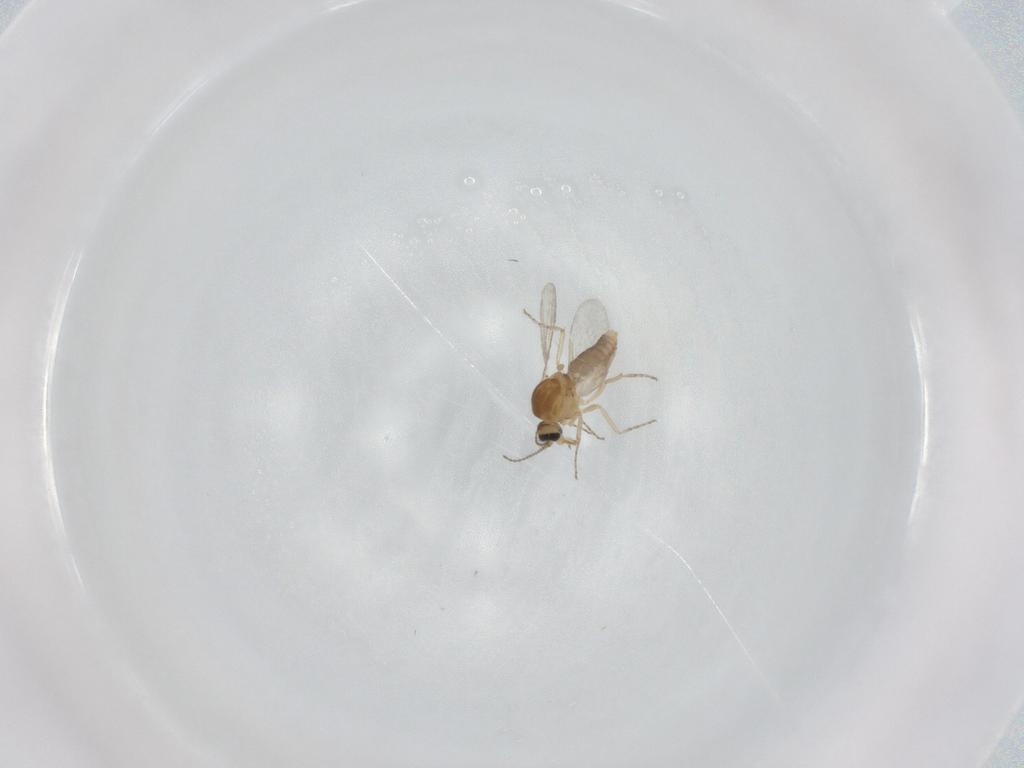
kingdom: Animalia
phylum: Arthropoda
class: Insecta
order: Diptera
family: Ceratopogonidae
